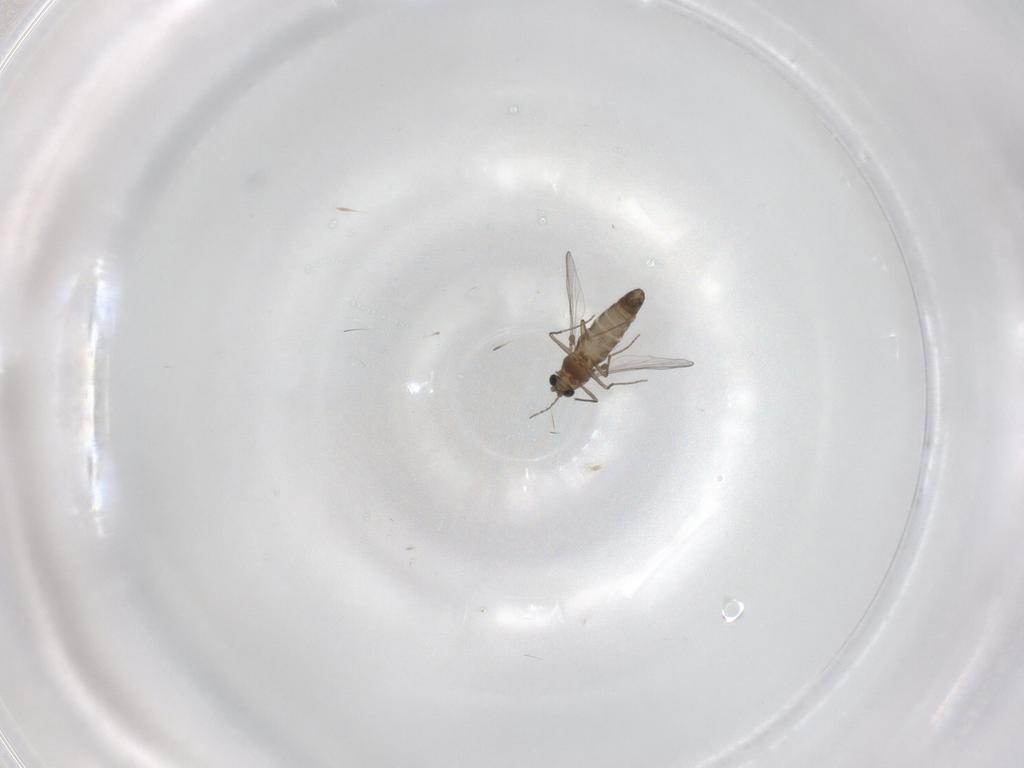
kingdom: Animalia
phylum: Arthropoda
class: Insecta
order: Diptera
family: Chironomidae
